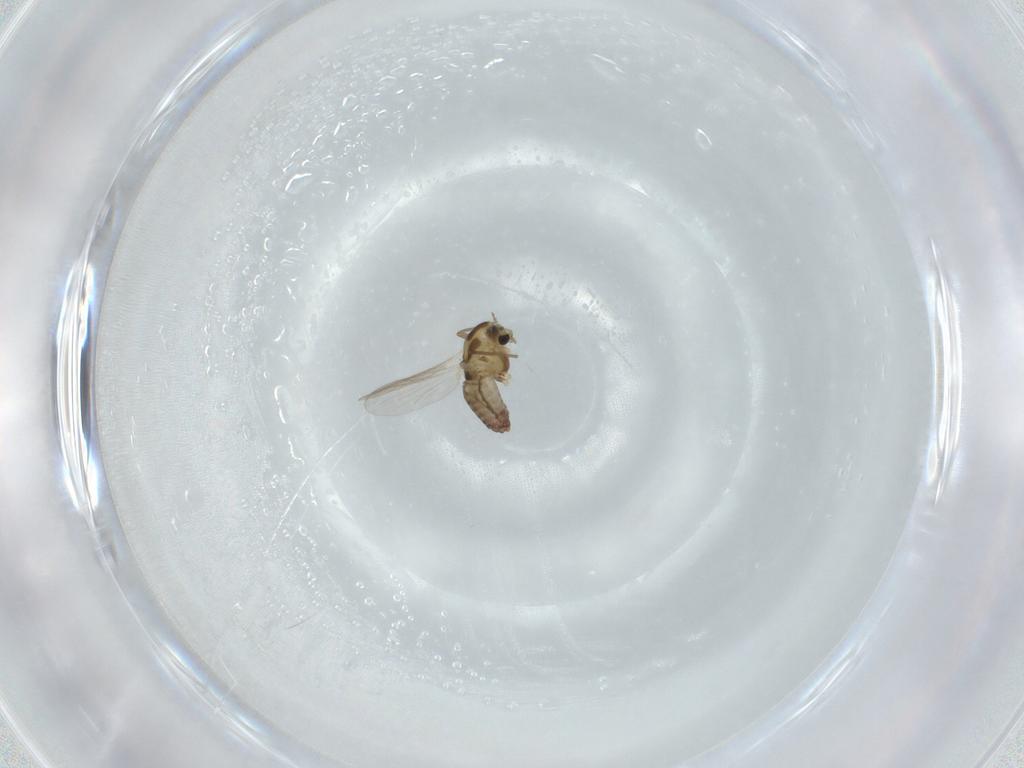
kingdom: Animalia
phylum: Arthropoda
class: Insecta
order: Diptera
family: Chironomidae
